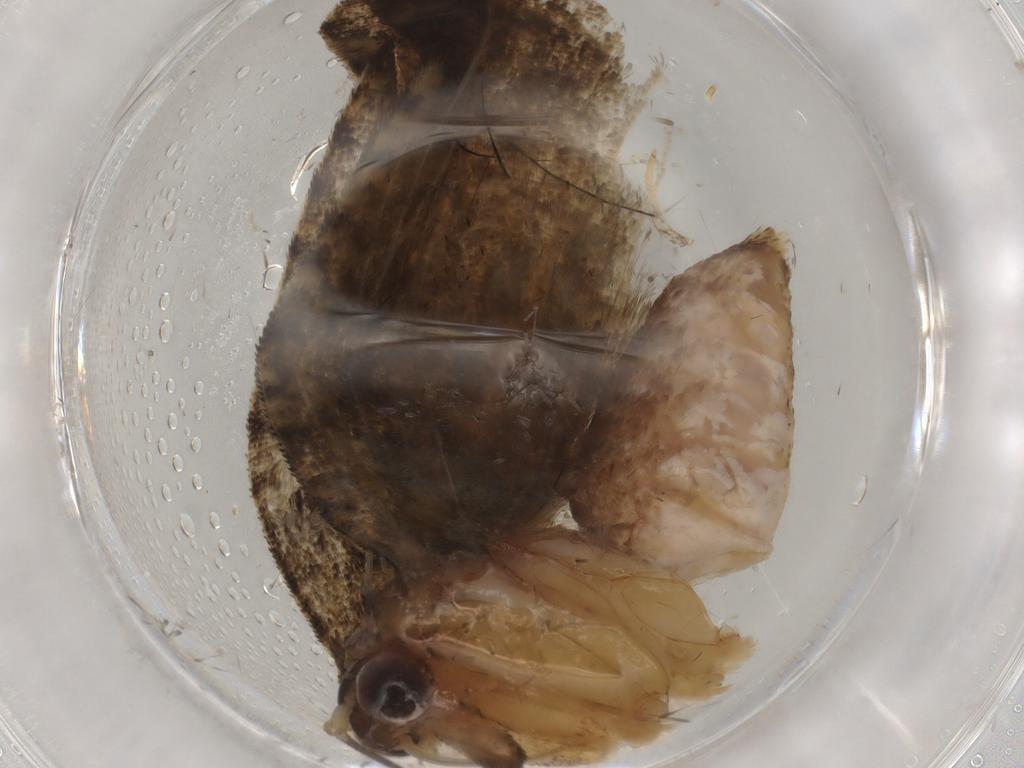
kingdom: Animalia
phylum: Arthropoda
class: Insecta
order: Lepidoptera
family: Tortricidae
